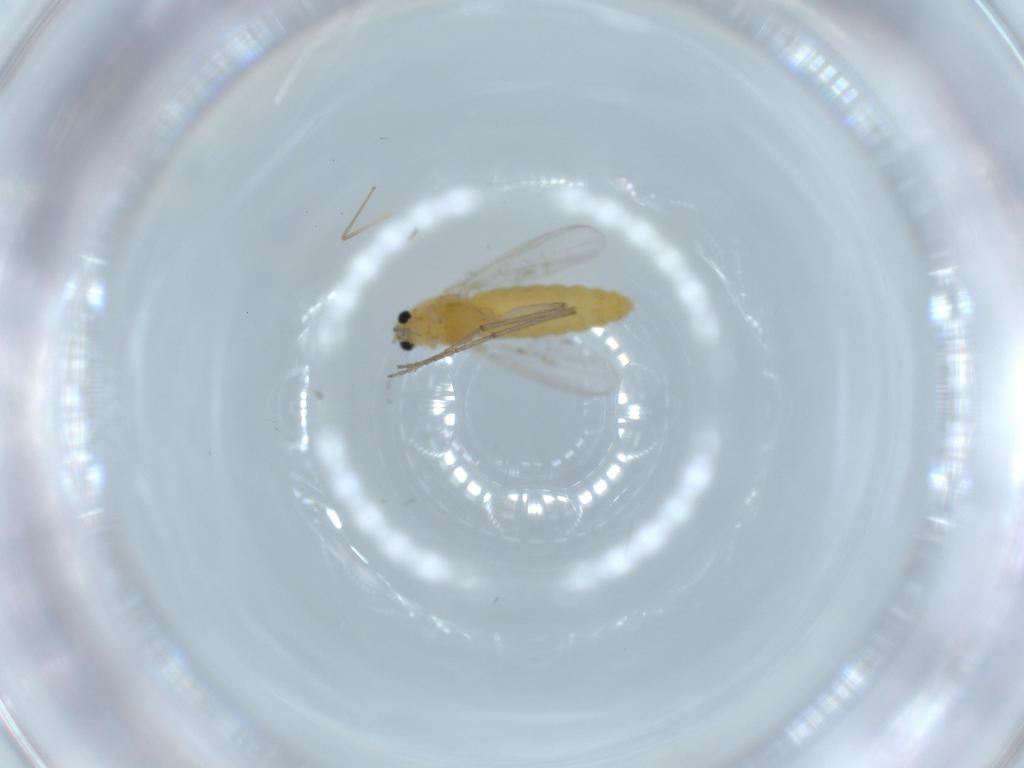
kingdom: Animalia
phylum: Arthropoda
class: Insecta
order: Diptera
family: Chironomidae
